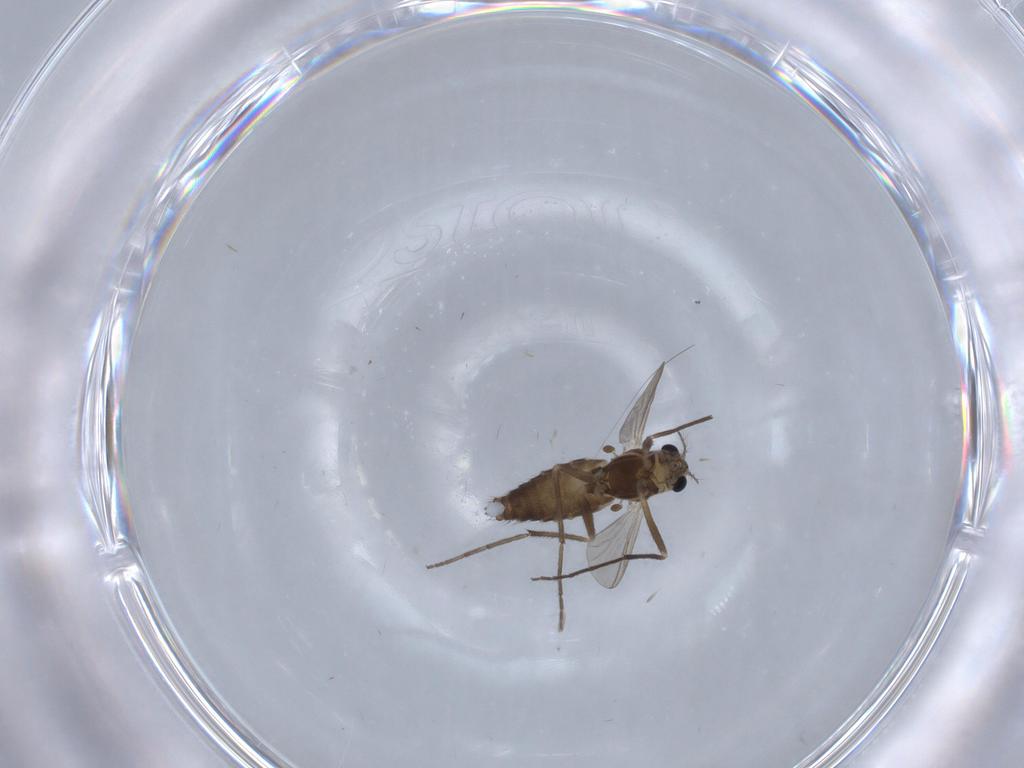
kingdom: Animalia
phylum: Arthropoda
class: Insecta
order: Diptera
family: Chironomidae
